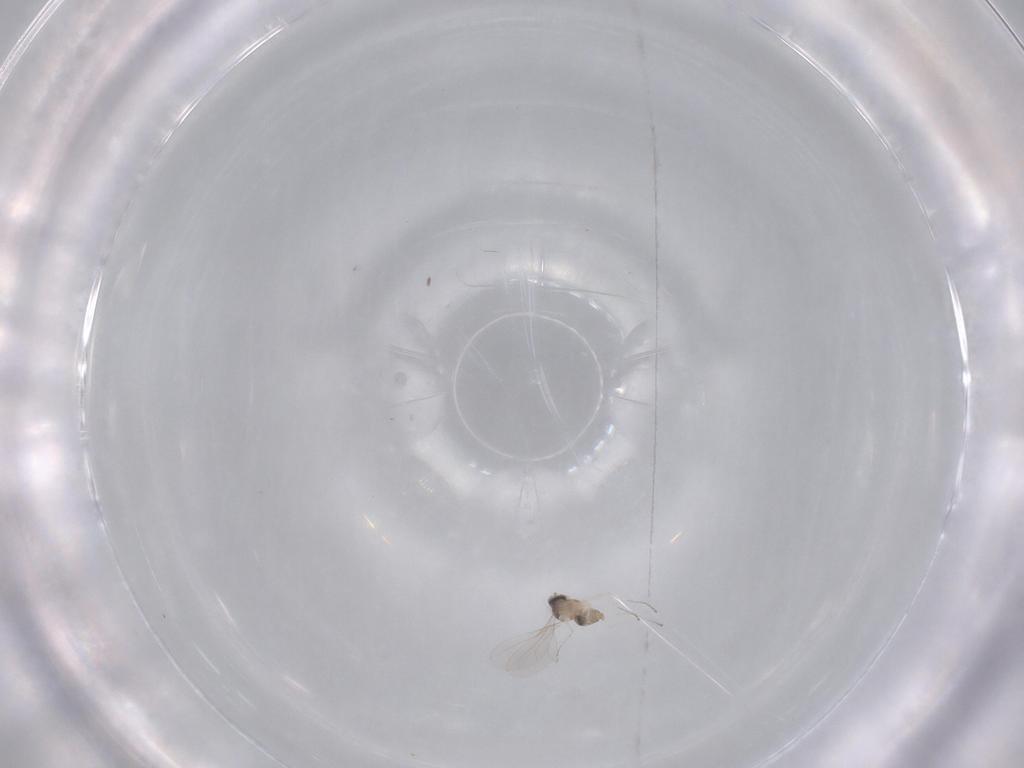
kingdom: Animalia
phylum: Arthropoda
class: Insecta
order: Diptera
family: Cecidomyiidae
